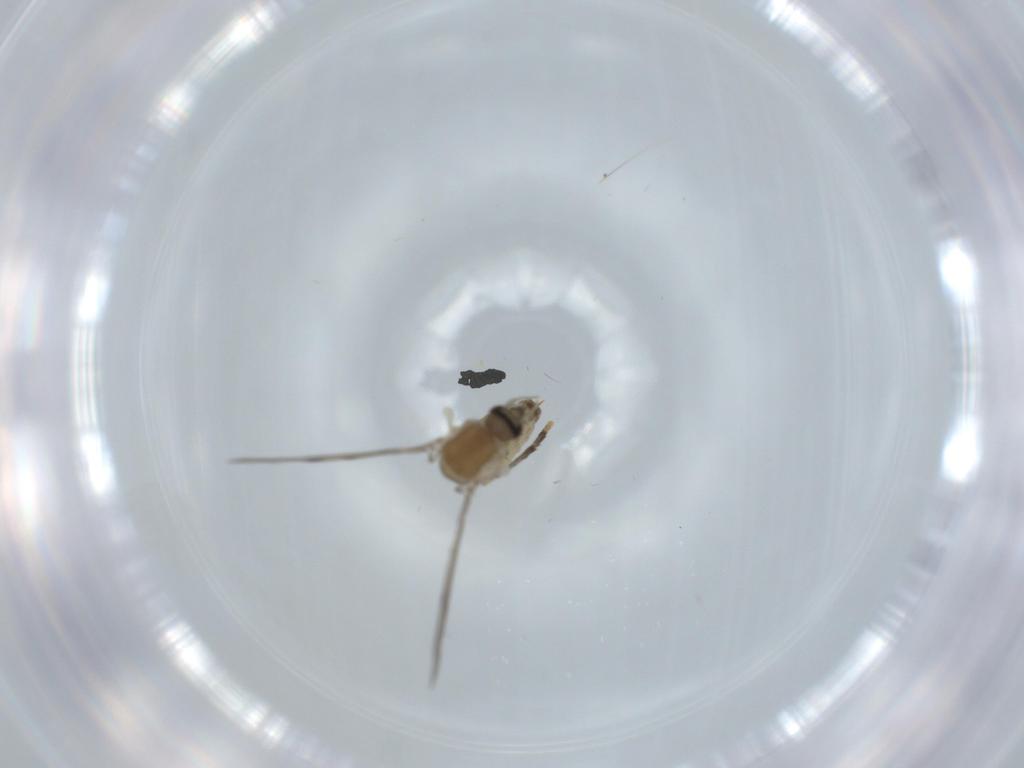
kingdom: Animalia
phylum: Arthropoda
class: Insecta
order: Diptera
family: Psychodidae
